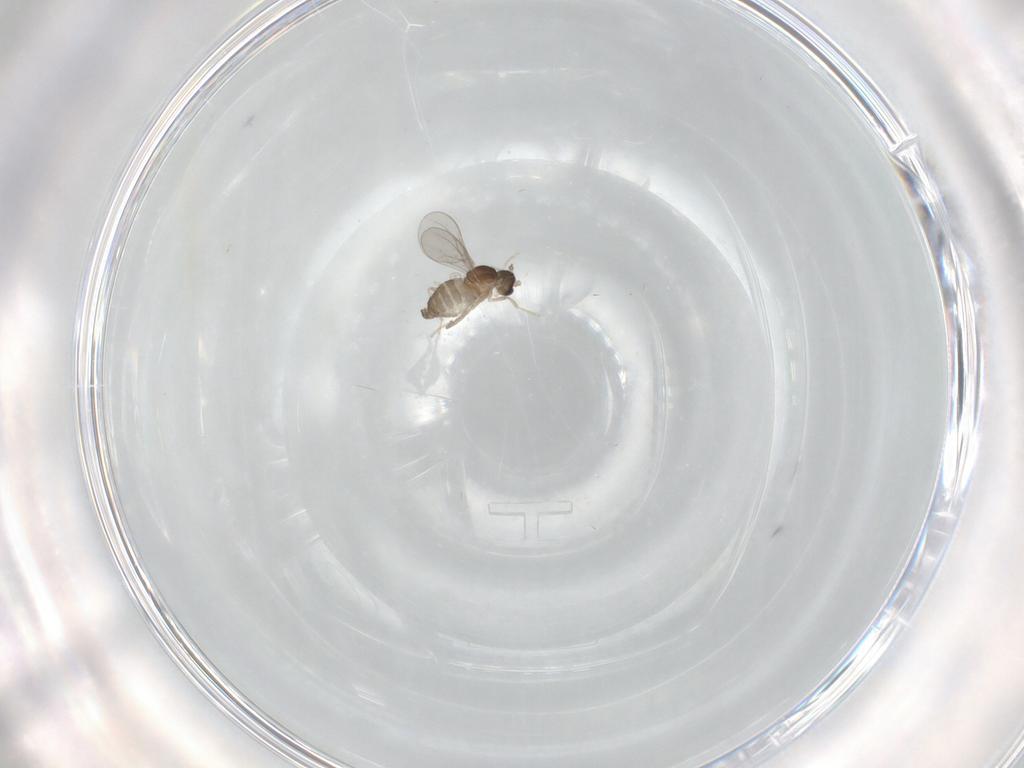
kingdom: Animalia
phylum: Arthropoda
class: Insecta
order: Diptera
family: Cecidomyiidae
